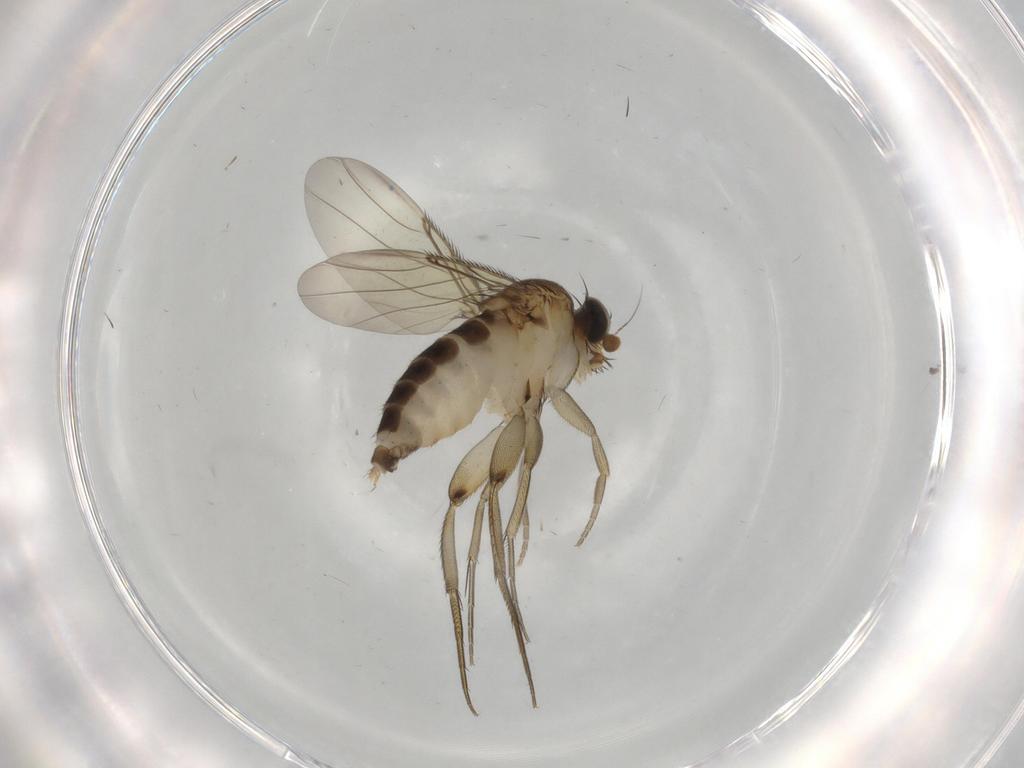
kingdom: Animalia
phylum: Arthropoda
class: Insecta
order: Diptera
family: Phoridae
